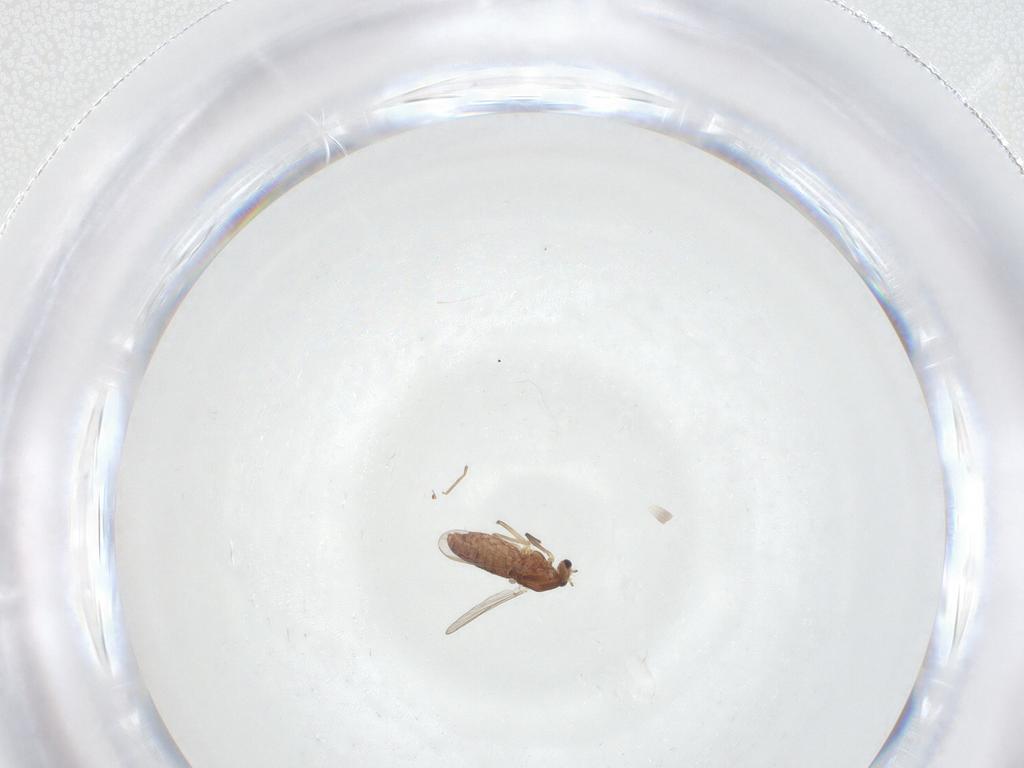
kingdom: Animalia
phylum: Arthropoda
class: Insecta
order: Diptera
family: Chironomidae
